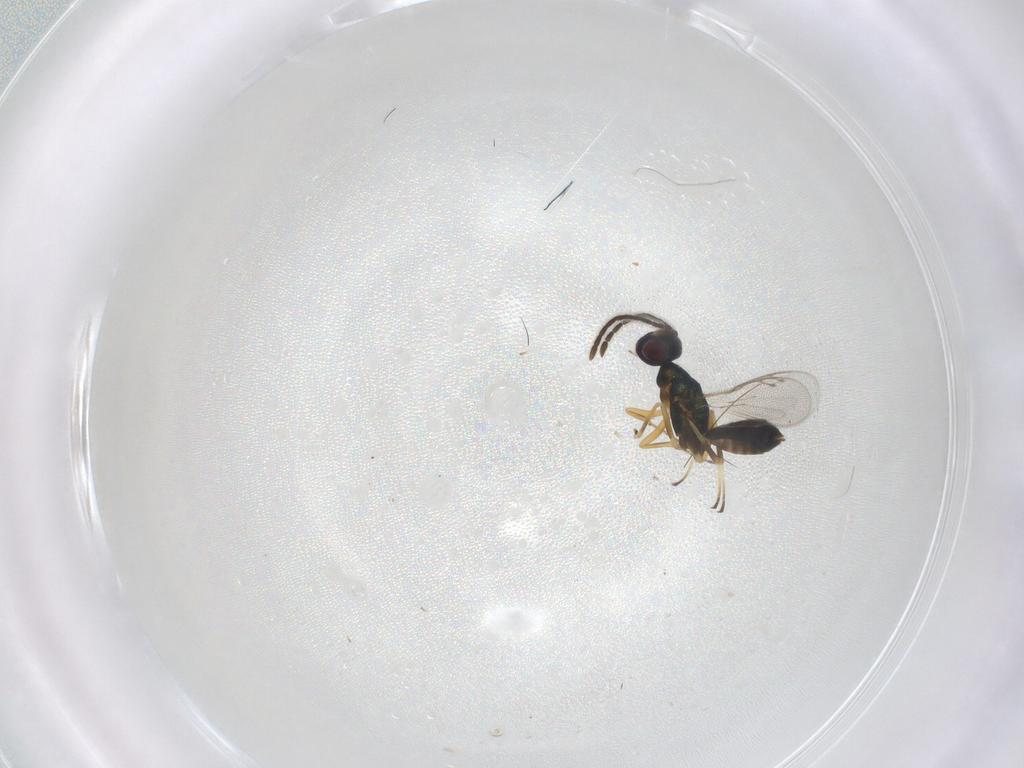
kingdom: Animalia
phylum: Arthropoda
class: Insecta
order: Hymenoptera
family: Eupelmidae
